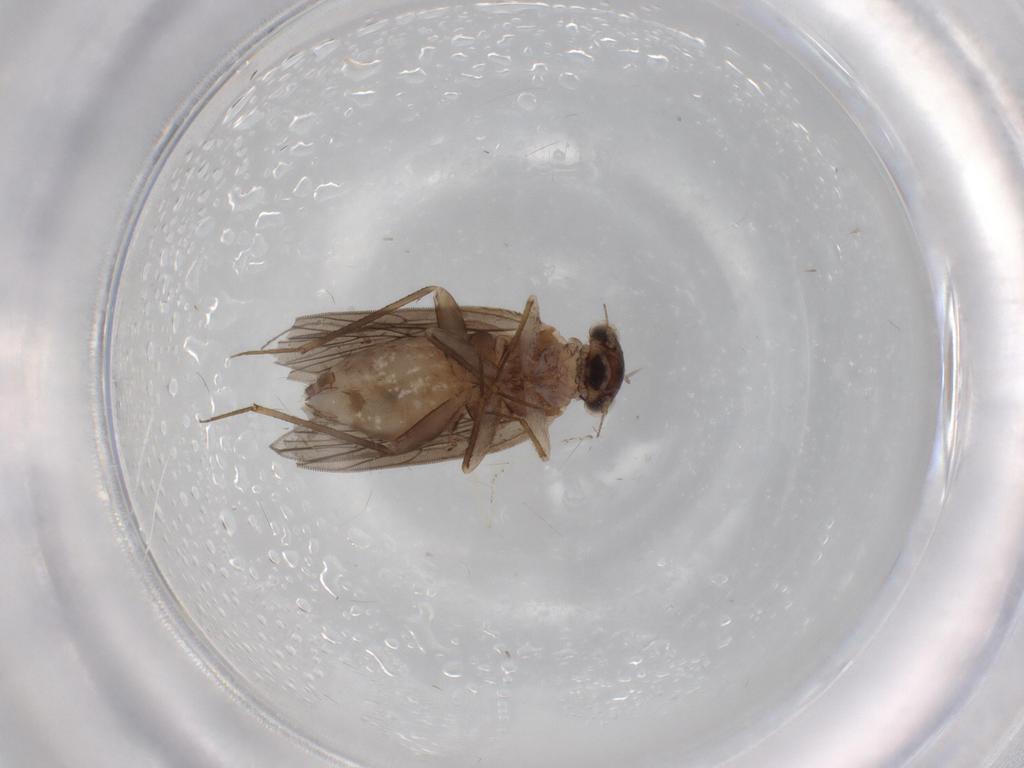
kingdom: Animalia
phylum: Arthropoda
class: Insecta
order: Psocodea
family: Lepidopsocidae
